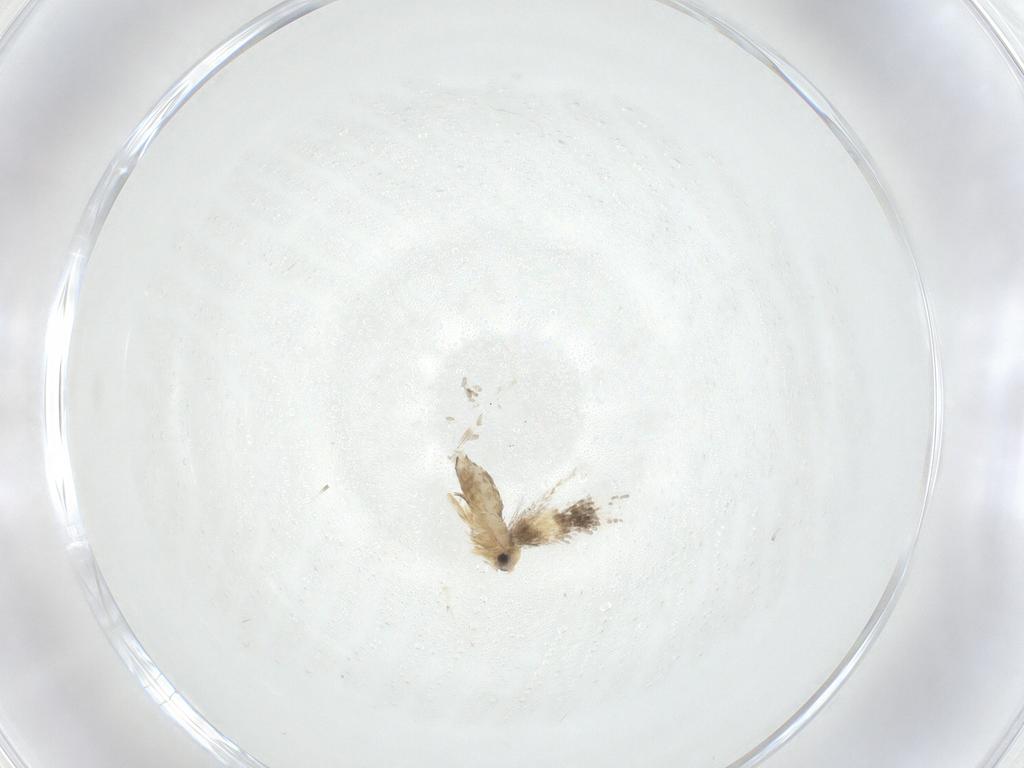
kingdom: Animalia
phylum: Arthropoda
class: Insecta
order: Lepidoptera
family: Nepticulidae
